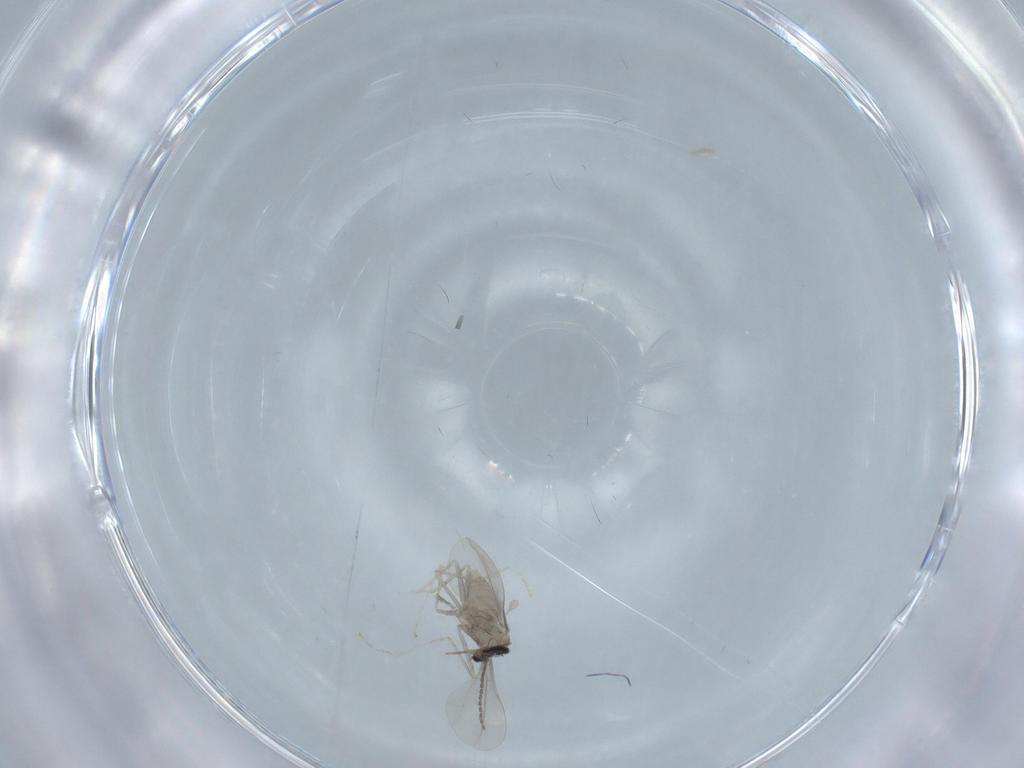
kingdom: Animalia
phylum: Arthropoda
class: Insecta
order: Diptera
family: Chironomidae
